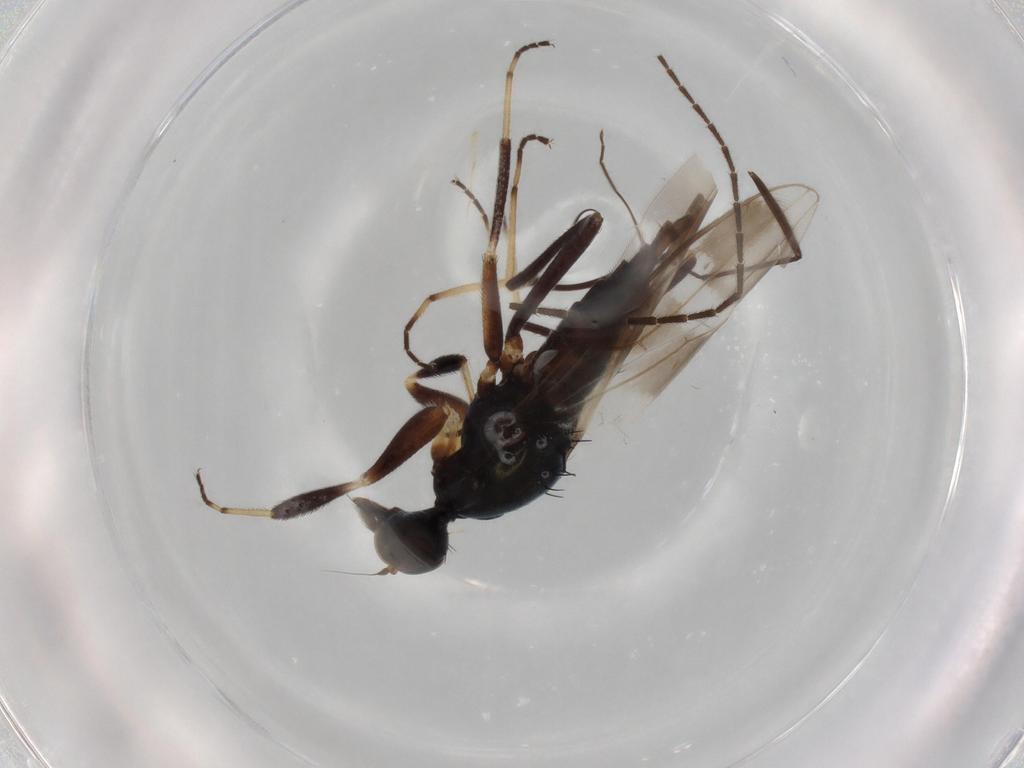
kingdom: Animalia
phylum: Arthropoda
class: Insecta
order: Diptera
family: Hybotidae
